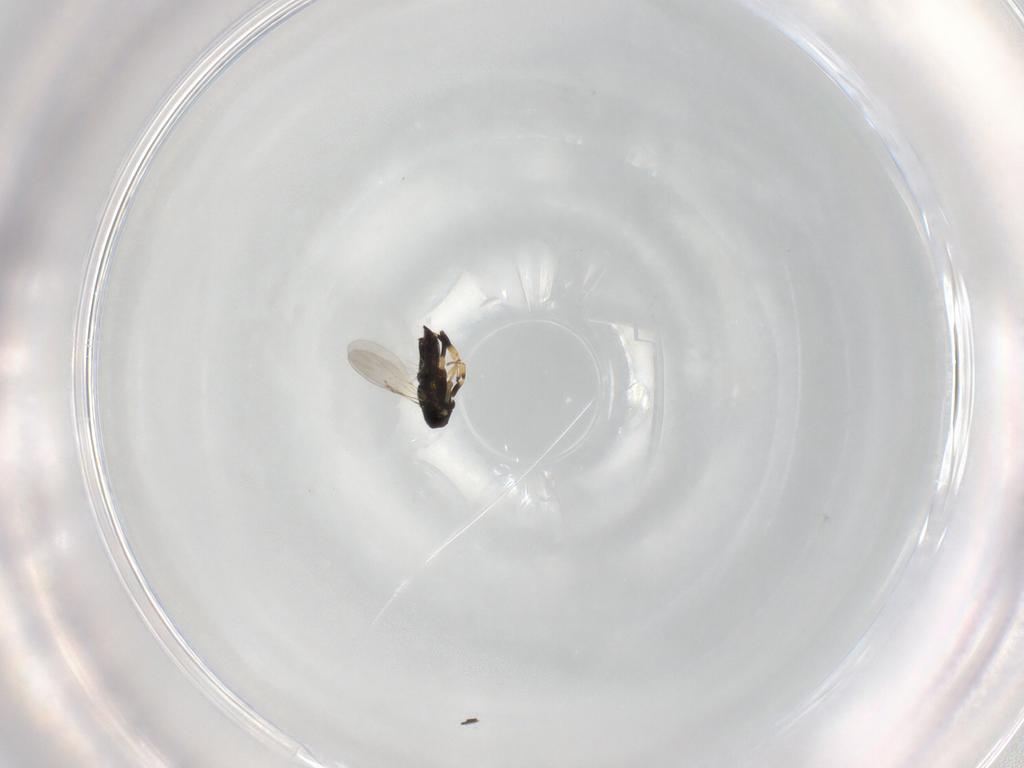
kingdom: Animalia
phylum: Arthropoda
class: Insecta
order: Hymenoptera
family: Encyrtidae
